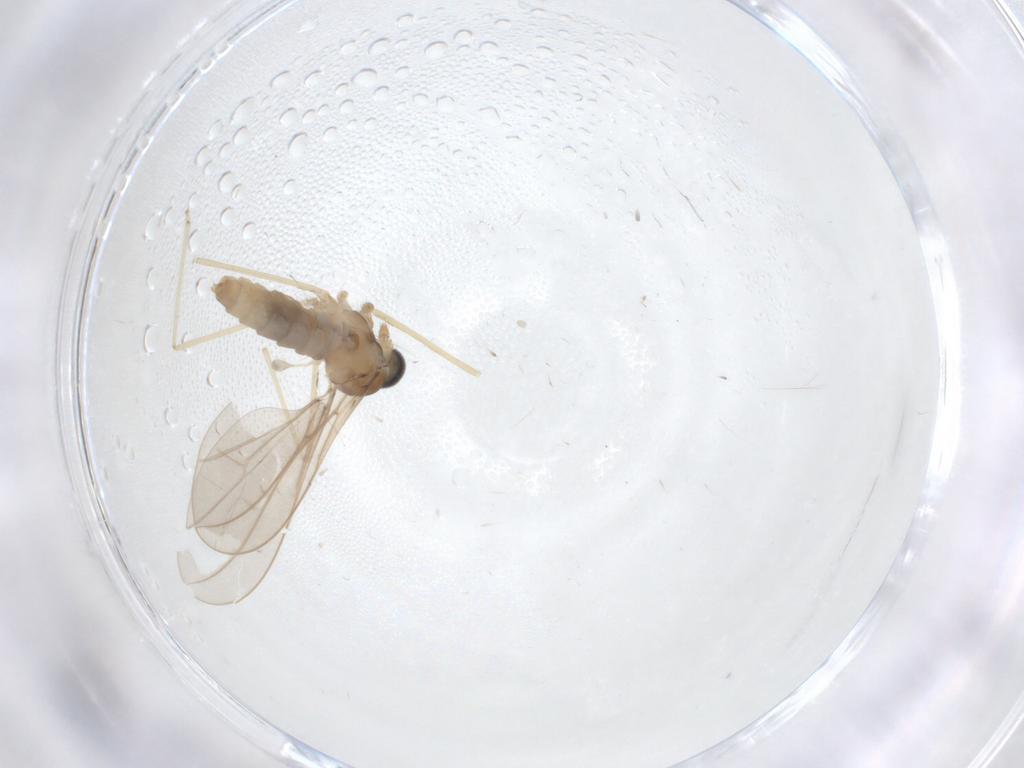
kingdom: Animalia
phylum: Arthropoda
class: Insecta
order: Diptera
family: Cecidomyiidae
